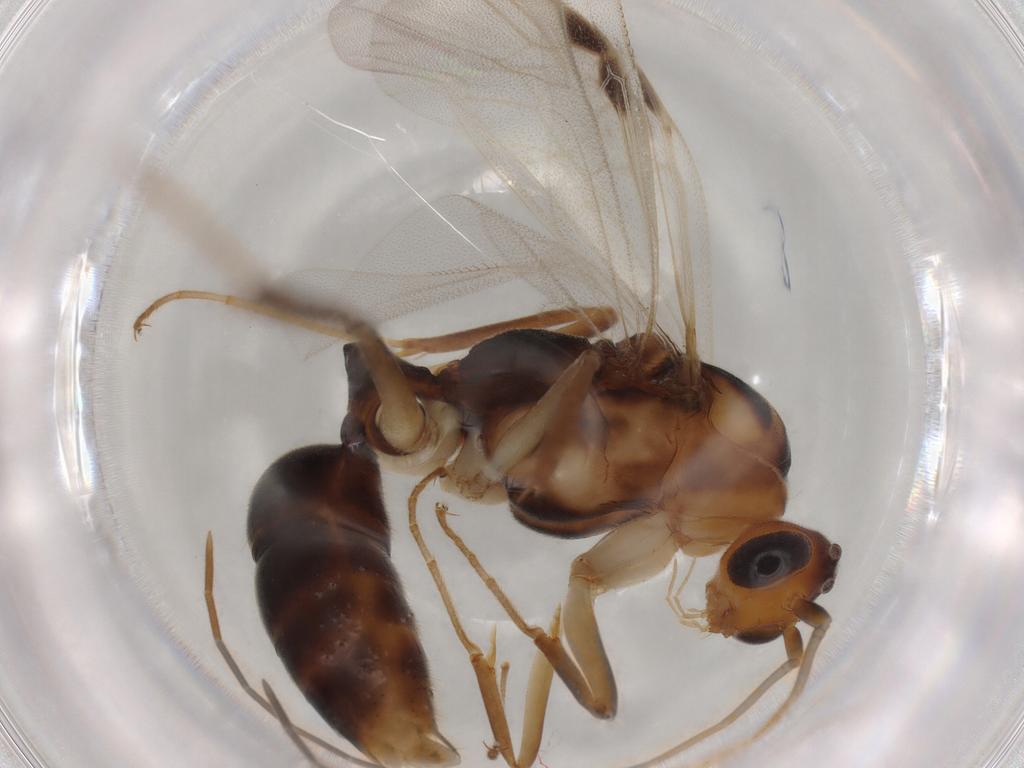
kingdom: Animalia
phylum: Arthropoda
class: Insecta
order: Hymenoptera
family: Formicidae
